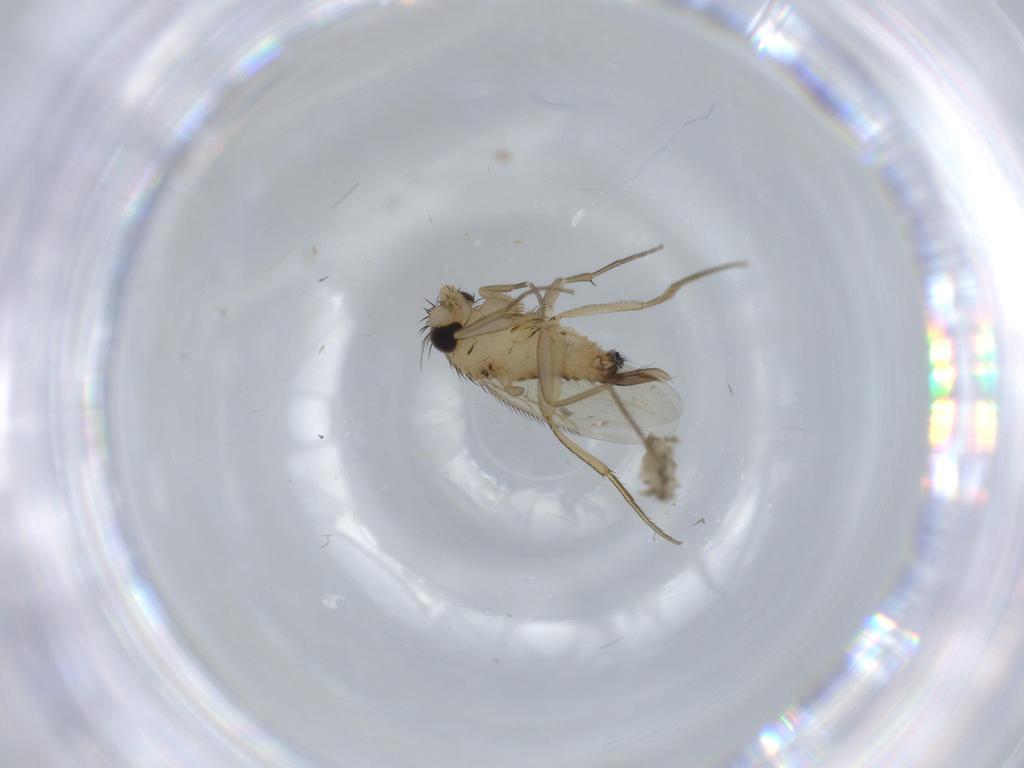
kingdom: Animalia
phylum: Arthropoda
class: Insecta
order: Diptera
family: Phoridae
